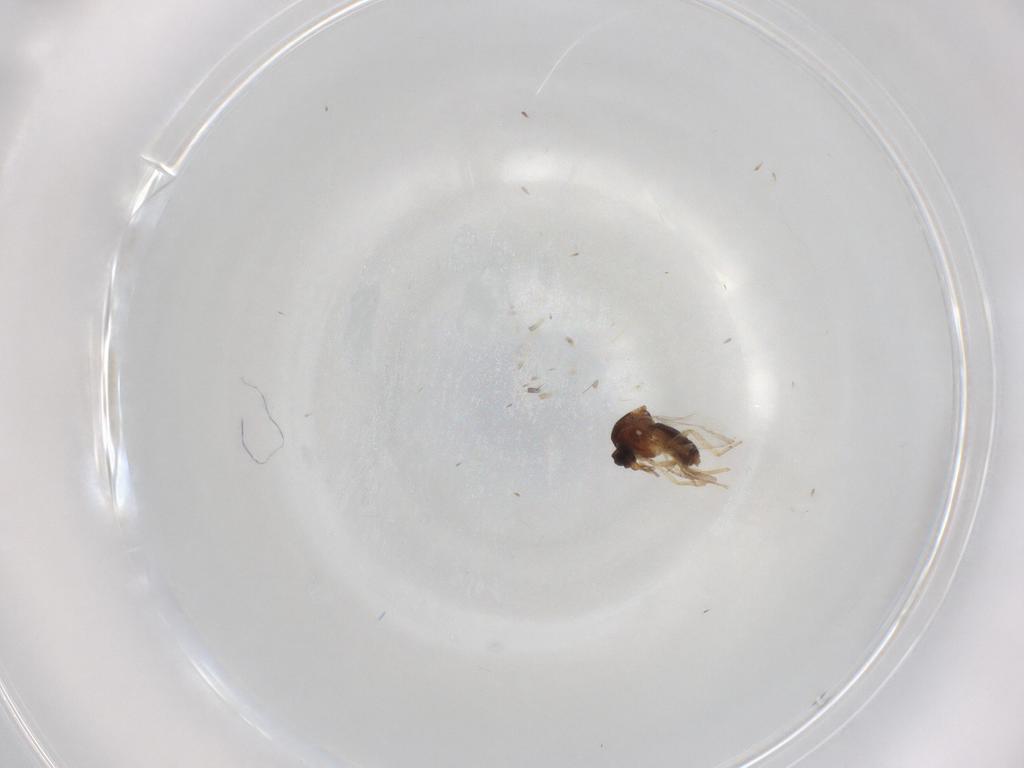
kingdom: Animalia
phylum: Arthropoda
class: Insecta
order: Diptera
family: Ceratopogonidae
